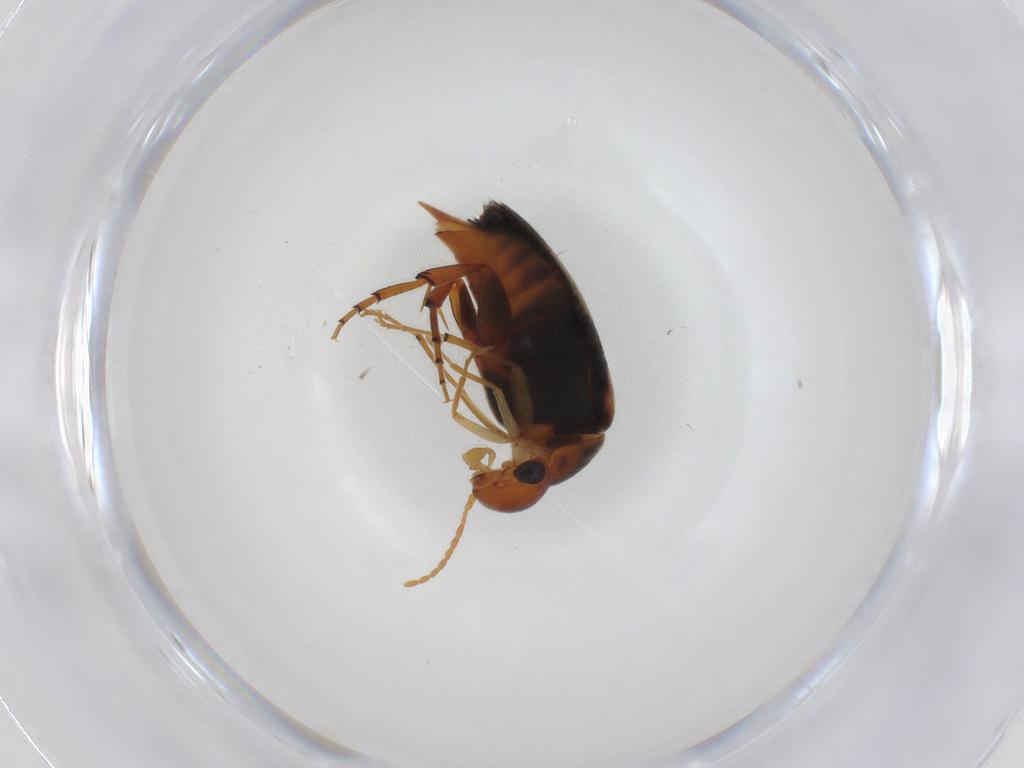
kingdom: Animalia
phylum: Arthropoda
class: Insecta
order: Coleoptera
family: Mordellidae
